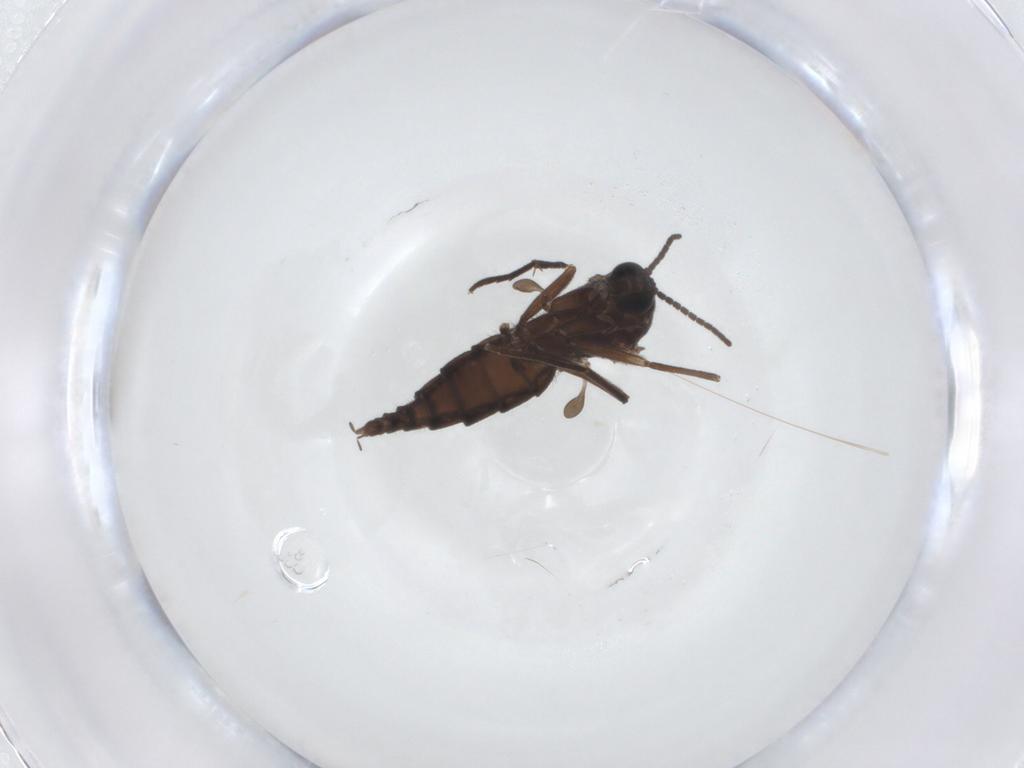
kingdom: Animalia
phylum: Arthropoda
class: Insecta
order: Diptera
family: Sciaridae
